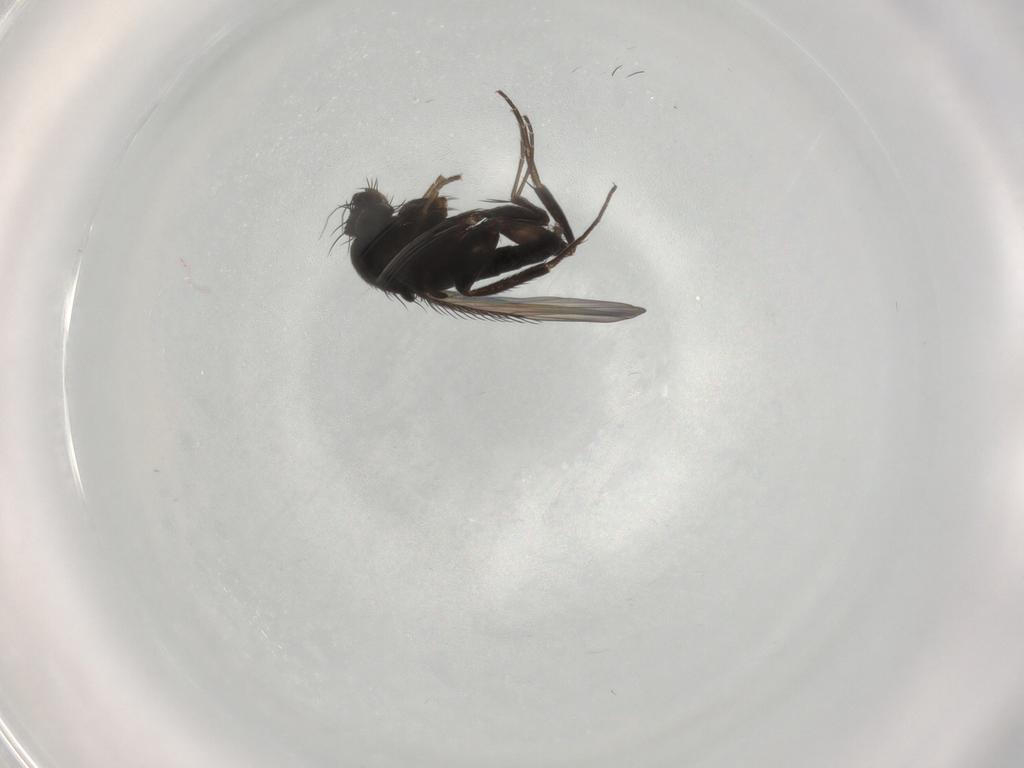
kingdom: Animalia
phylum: Arthropoda
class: Insecta
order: Diptera
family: Phoridae
